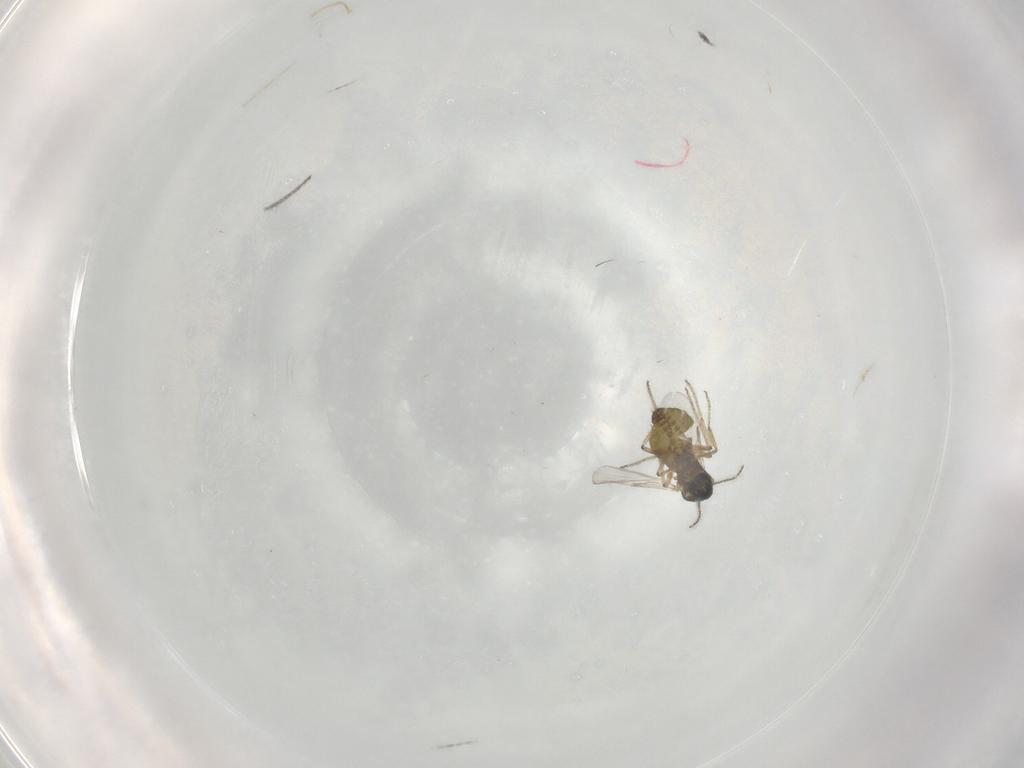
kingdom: Animalia
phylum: Arthropoda
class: Insecta
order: Diptera
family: Ceratopogonidae
